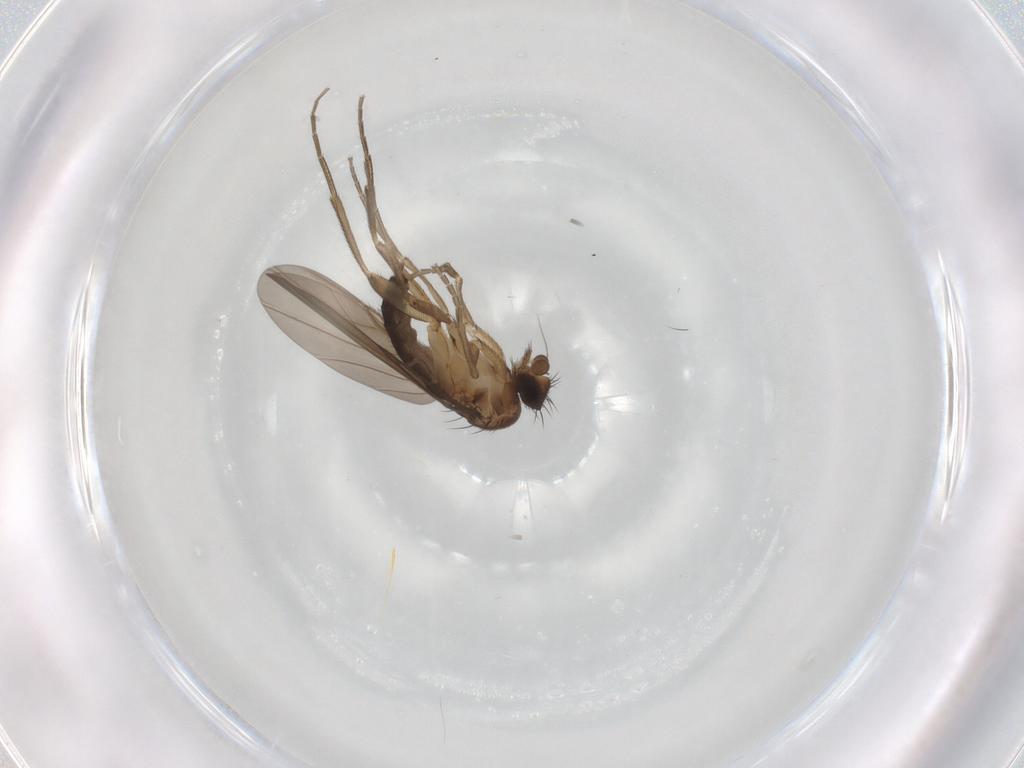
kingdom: Animalia
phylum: Arthropoda
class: Insecta
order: Diptera
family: Phoridae
